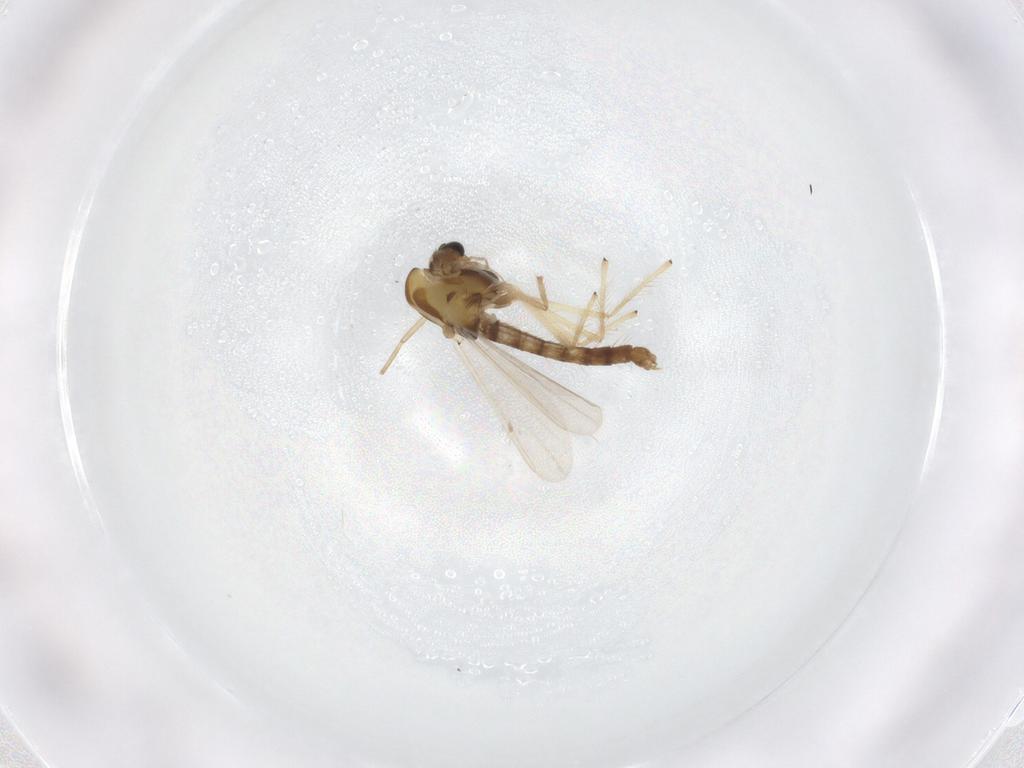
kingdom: Animalia
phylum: Arthropoda
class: Insecta
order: Diptera
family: Chironomidae
